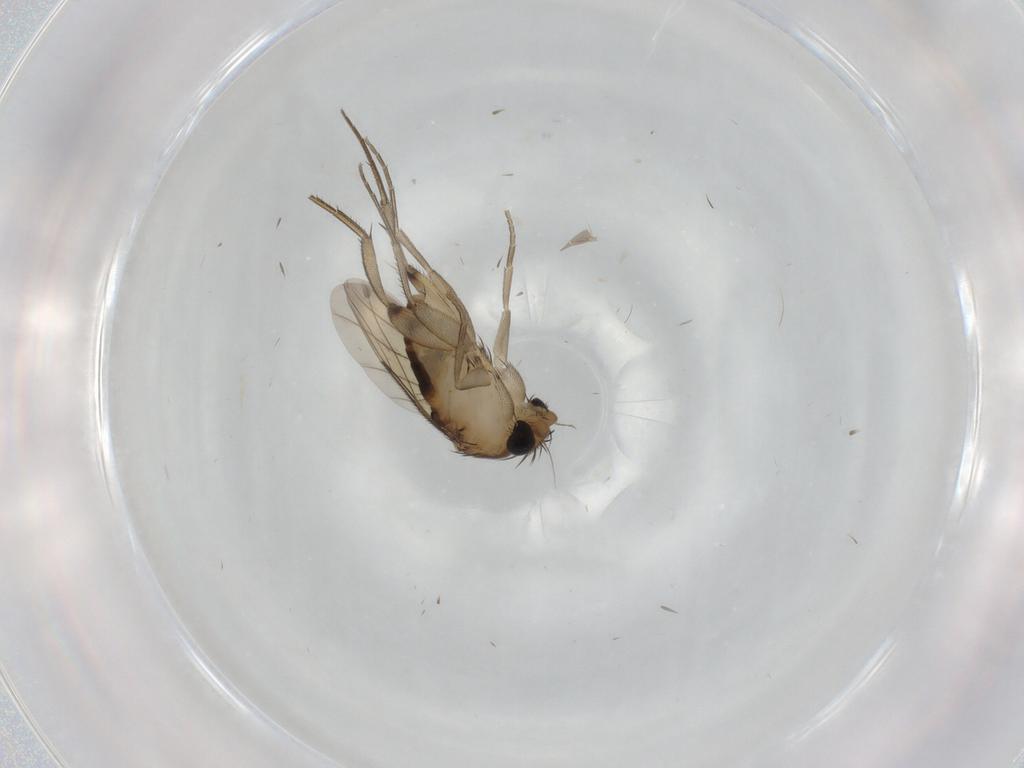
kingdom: Animalia
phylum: Arthropoda
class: Insecta
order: Diptera
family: Phoridae
